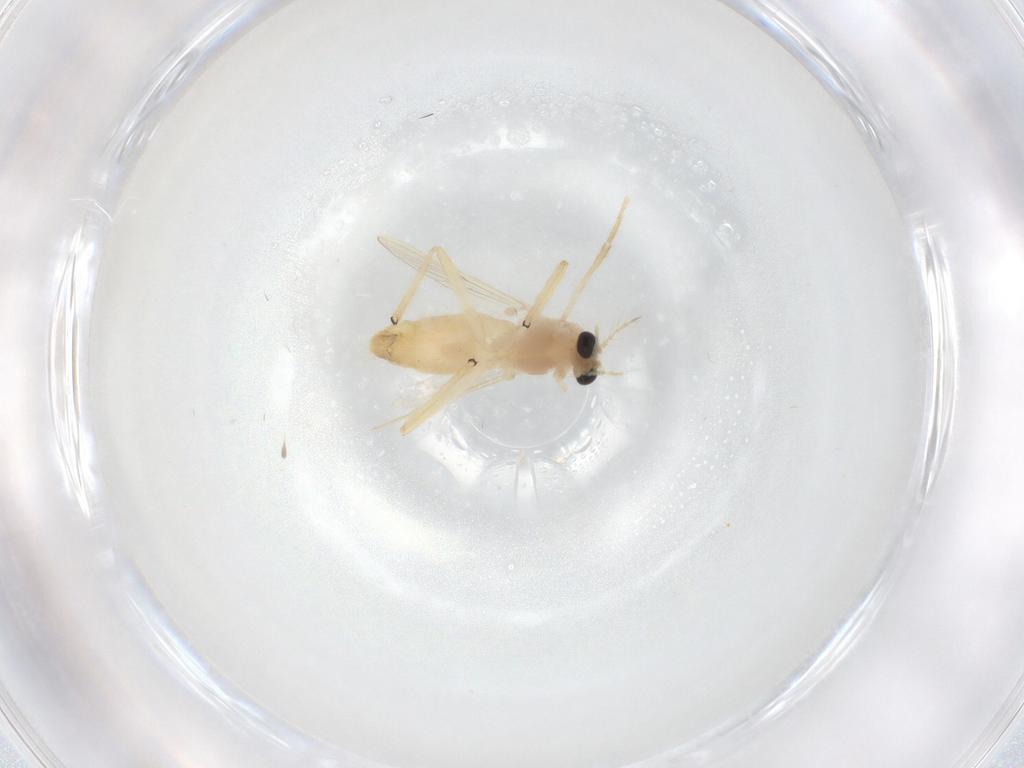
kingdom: Animalia
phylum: Arthropoda
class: Insecta
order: Diptera
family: Chironomidae
